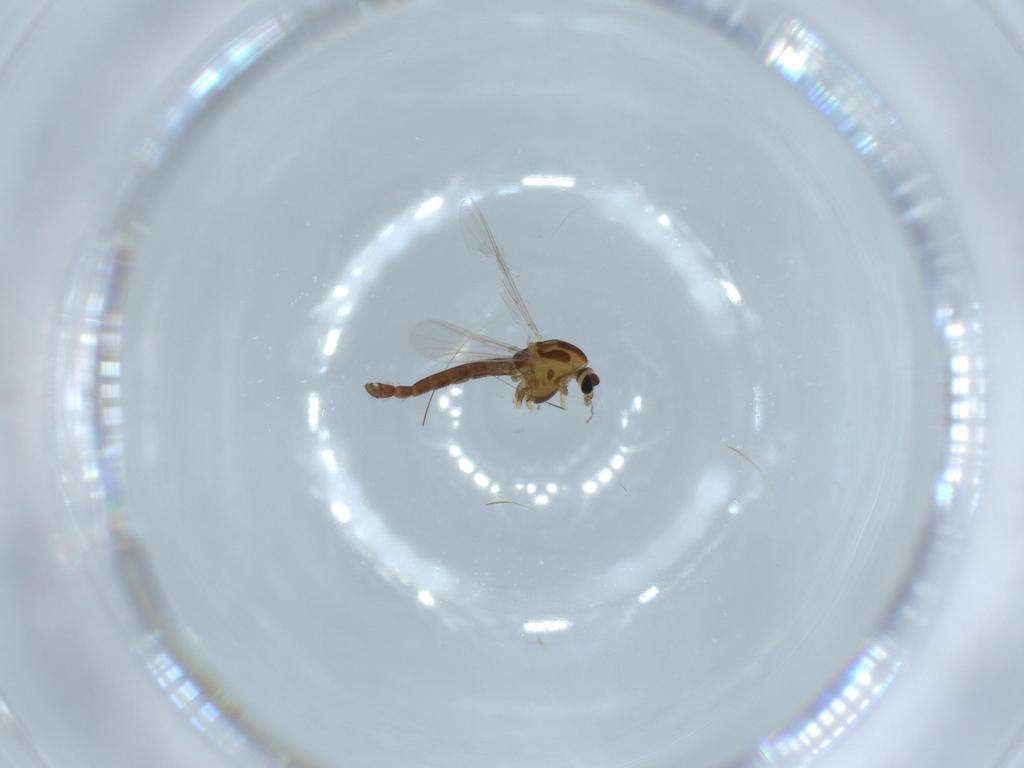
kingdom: Animalia
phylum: Arthropoda
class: Insecta
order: Diptera
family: Chironomidae
